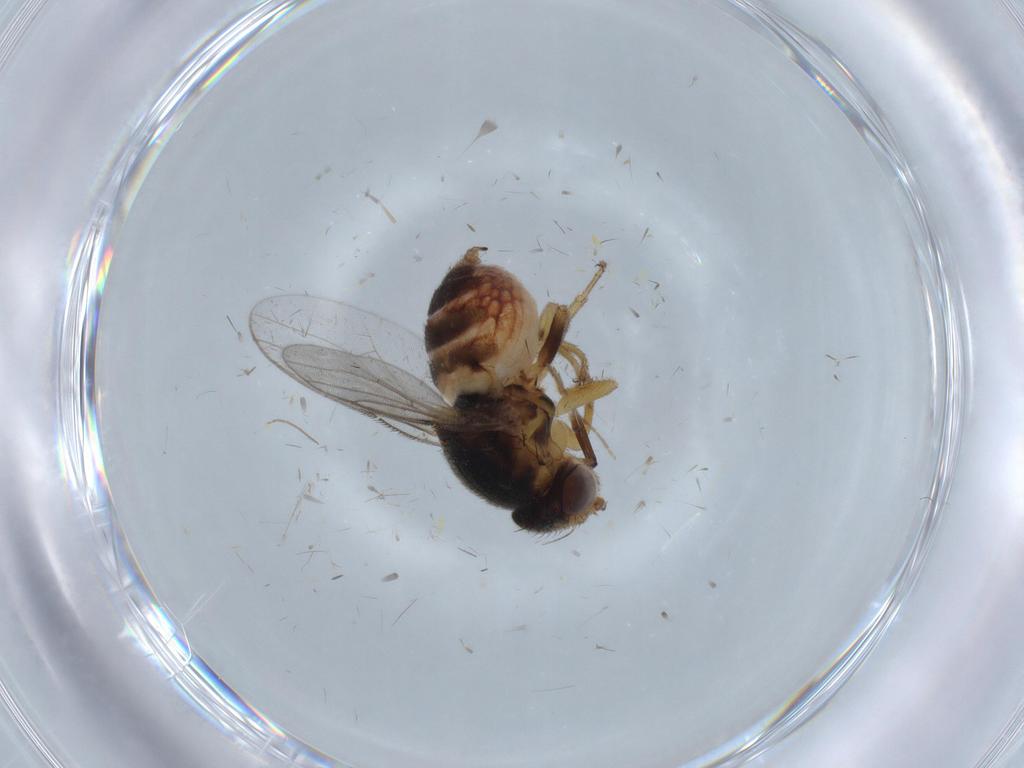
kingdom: Animalia
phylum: Arthropoda
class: Insecta
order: Diptera
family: Chloropidae
